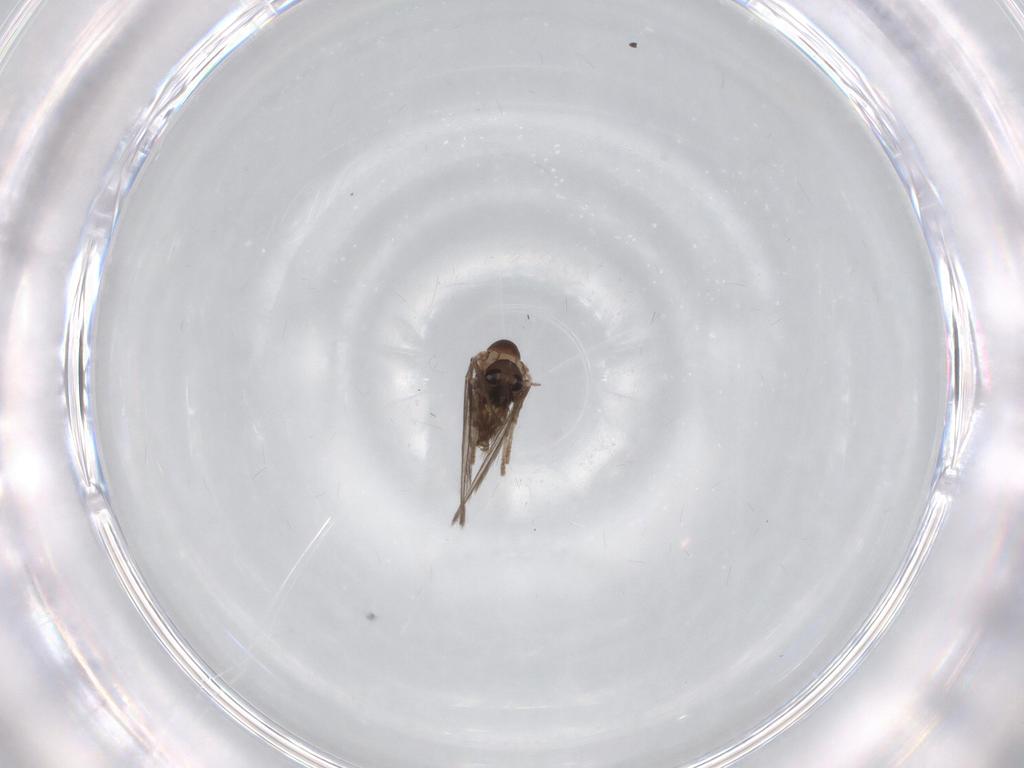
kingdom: Animalia
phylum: Arthropoda
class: Insecta
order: Diptera
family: Psychodidae
